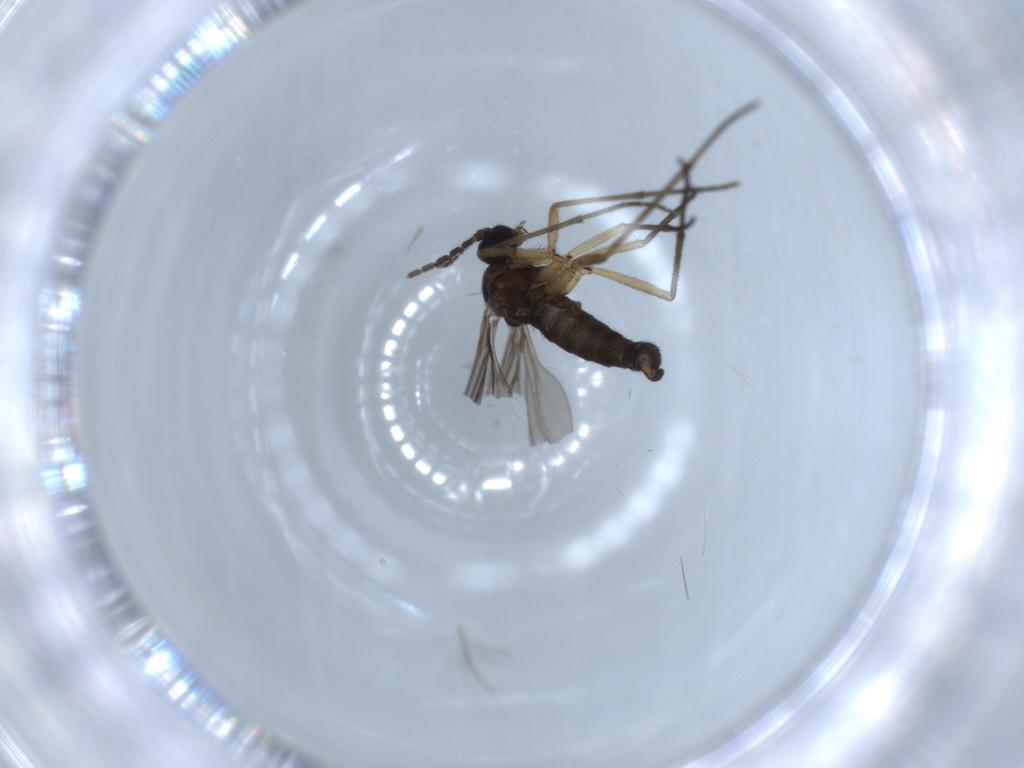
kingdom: Animalia
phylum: Arthropoda
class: Insecta
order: Diptera
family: Sciaridae
